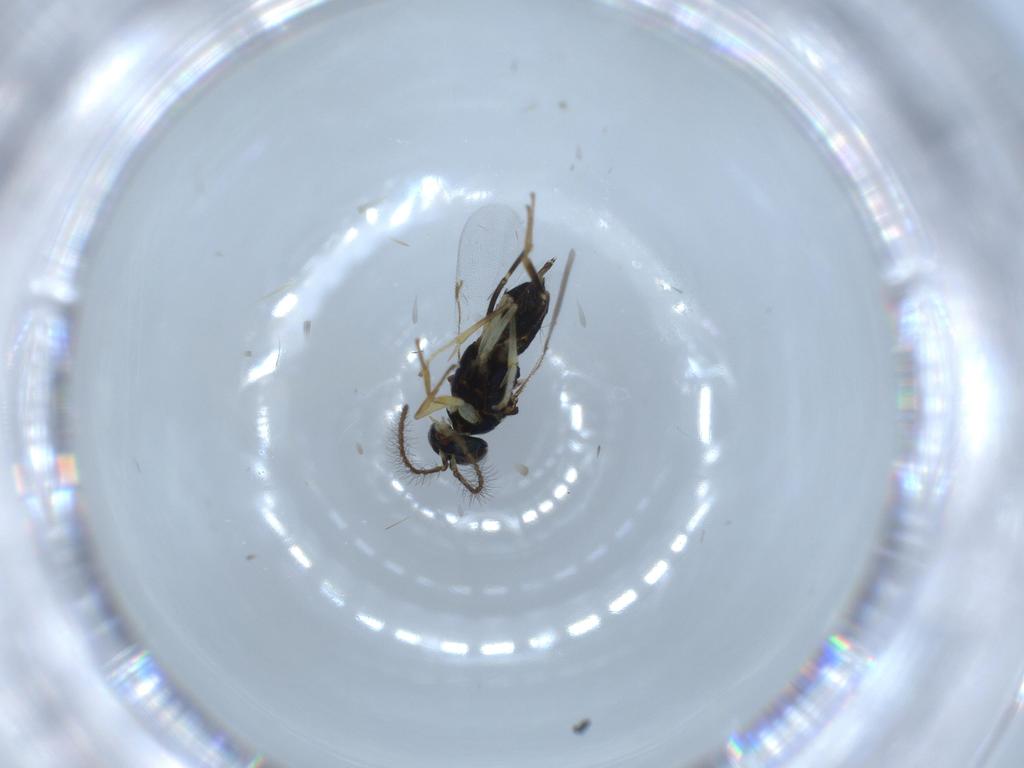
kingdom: Animalia
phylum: Arthropoda
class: Insecta
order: Hymenoptera
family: Encyrtidae
